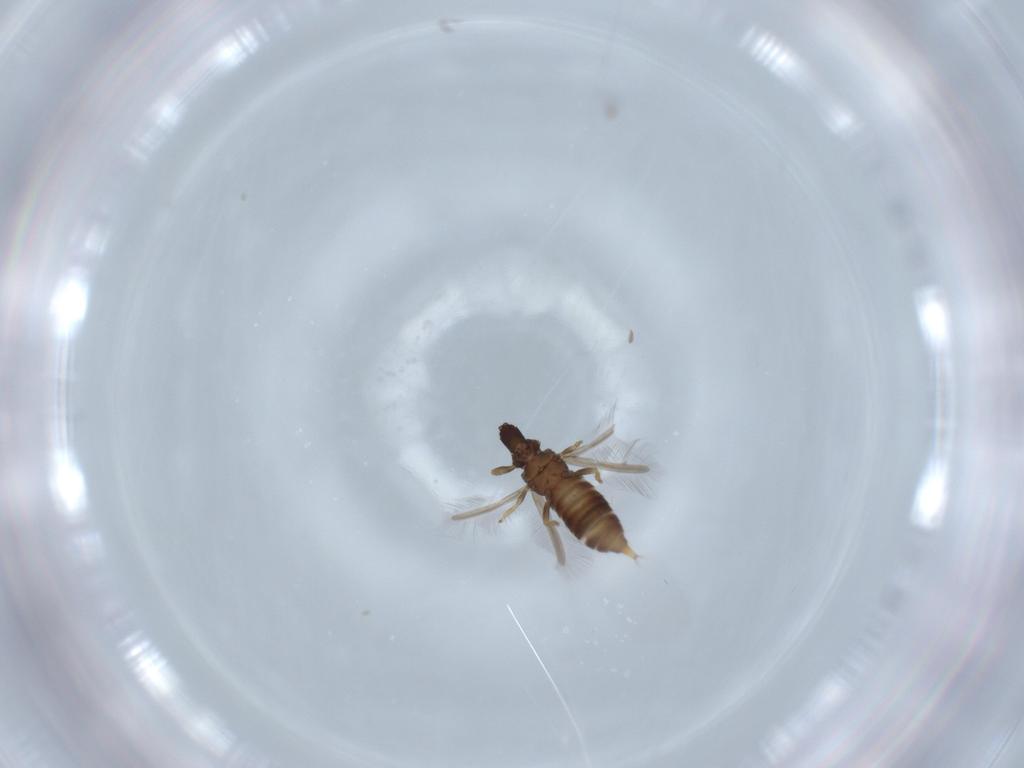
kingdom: Animalia
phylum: Arthropoda
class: Insecta
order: Thysanoptera
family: Phlaeothripidae
